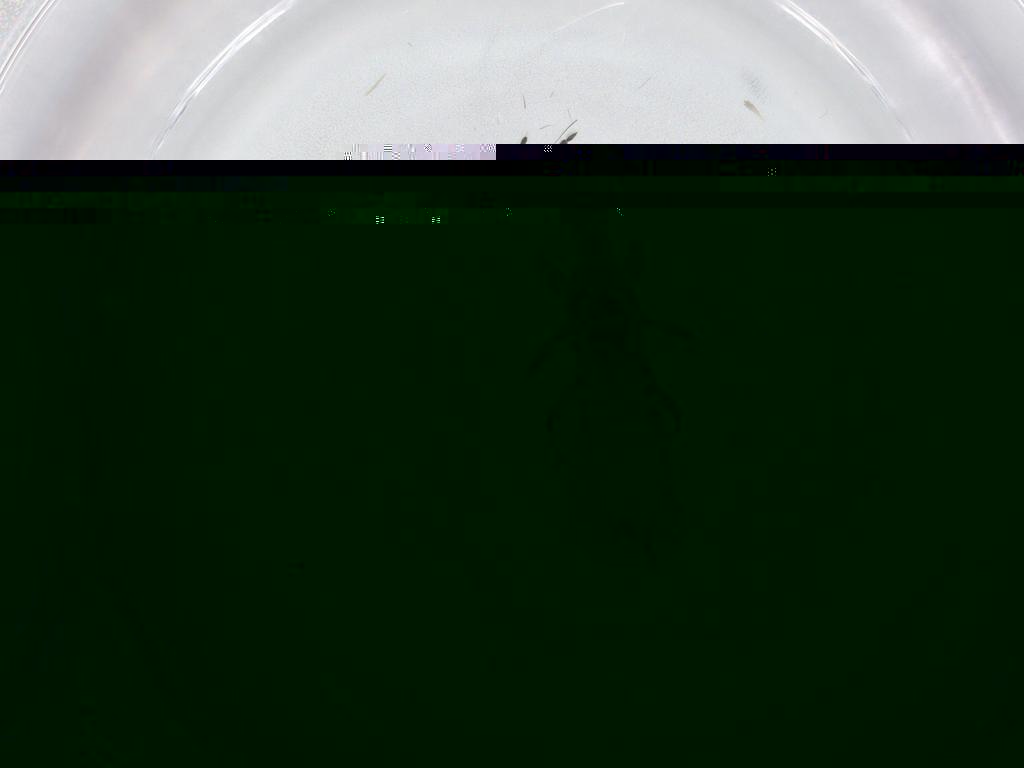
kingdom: Animalia
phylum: Arthropoda
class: Insecta
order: Thysanoptera
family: Phlaeothripidae
